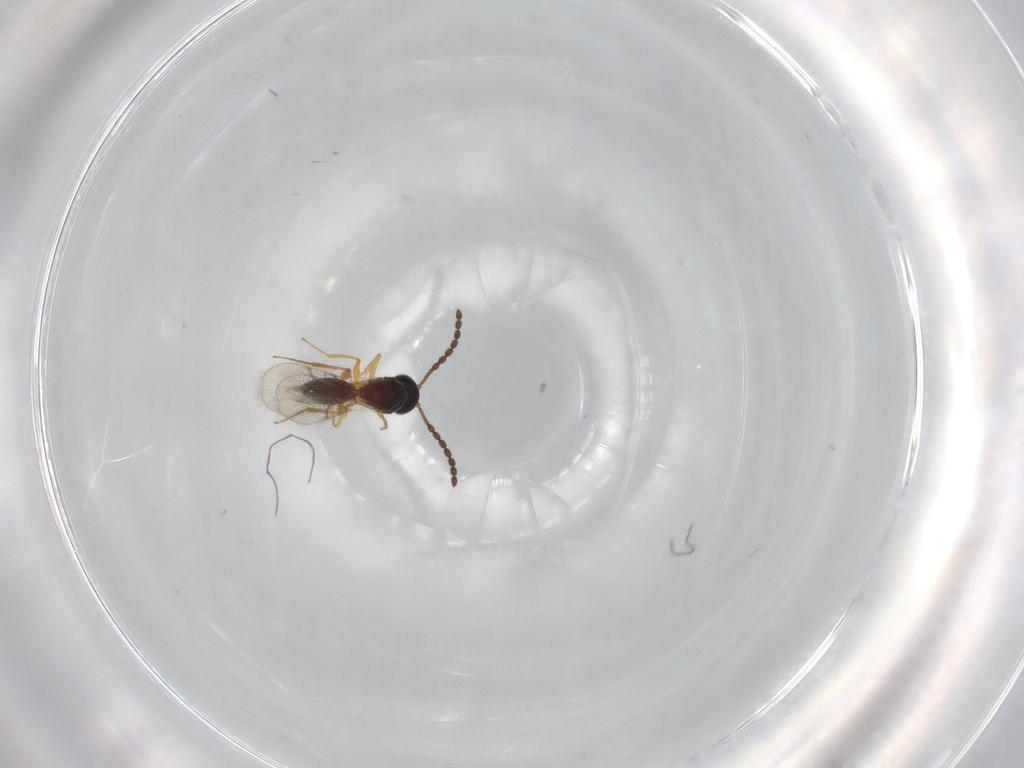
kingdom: Animalia
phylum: Arthropoda
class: Insecta
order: Hymenoptera
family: Figitidae
